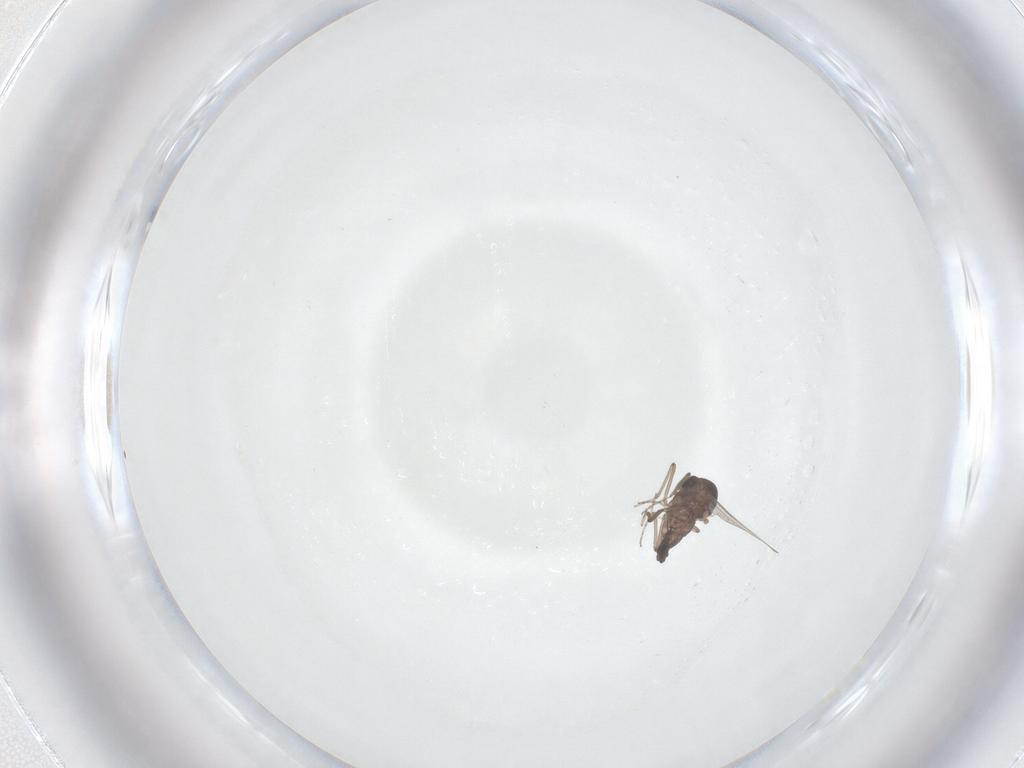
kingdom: Animalia
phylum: Arthropoda
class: Insecta
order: Diptera
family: Ceratopogonidae
